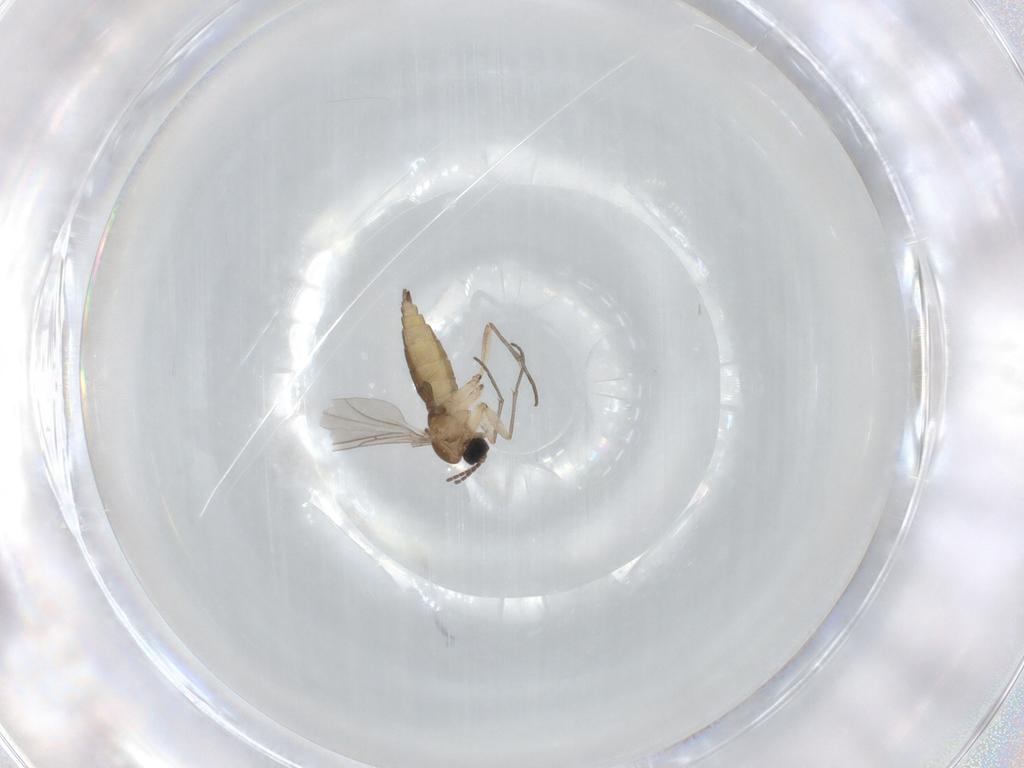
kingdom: Animalia
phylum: Arthropoda
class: Insecta
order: Diptera
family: Sciaridae
